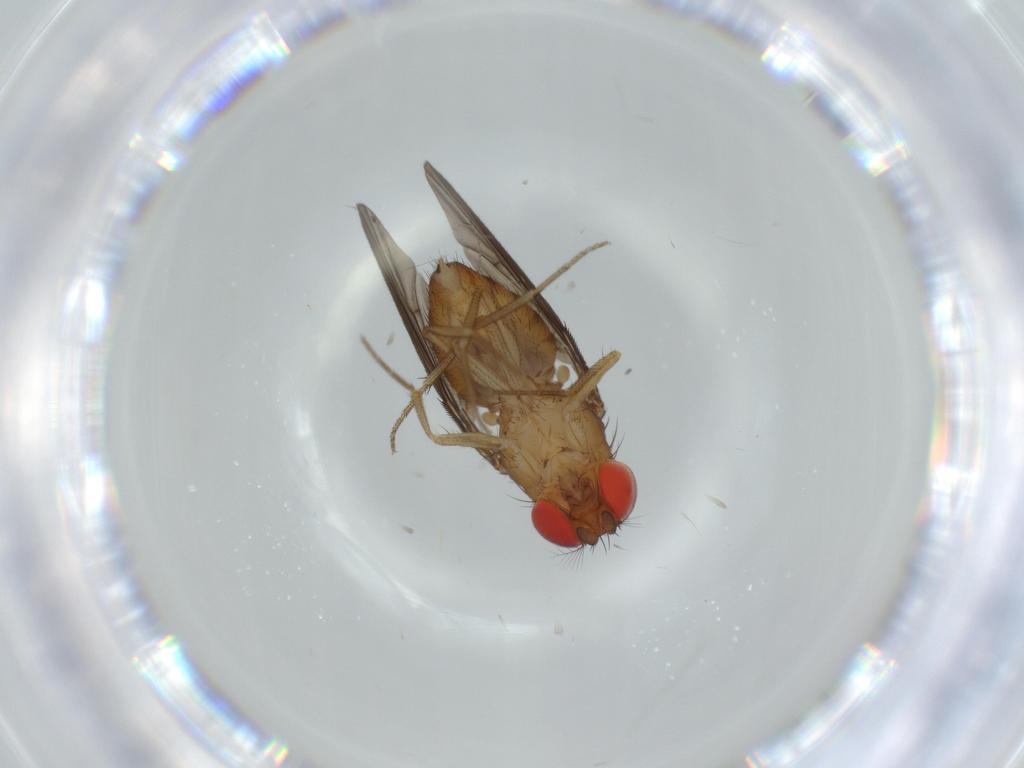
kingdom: Animalia
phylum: Arthropoda
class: Insecta
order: Diptera
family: Drosophilidae
